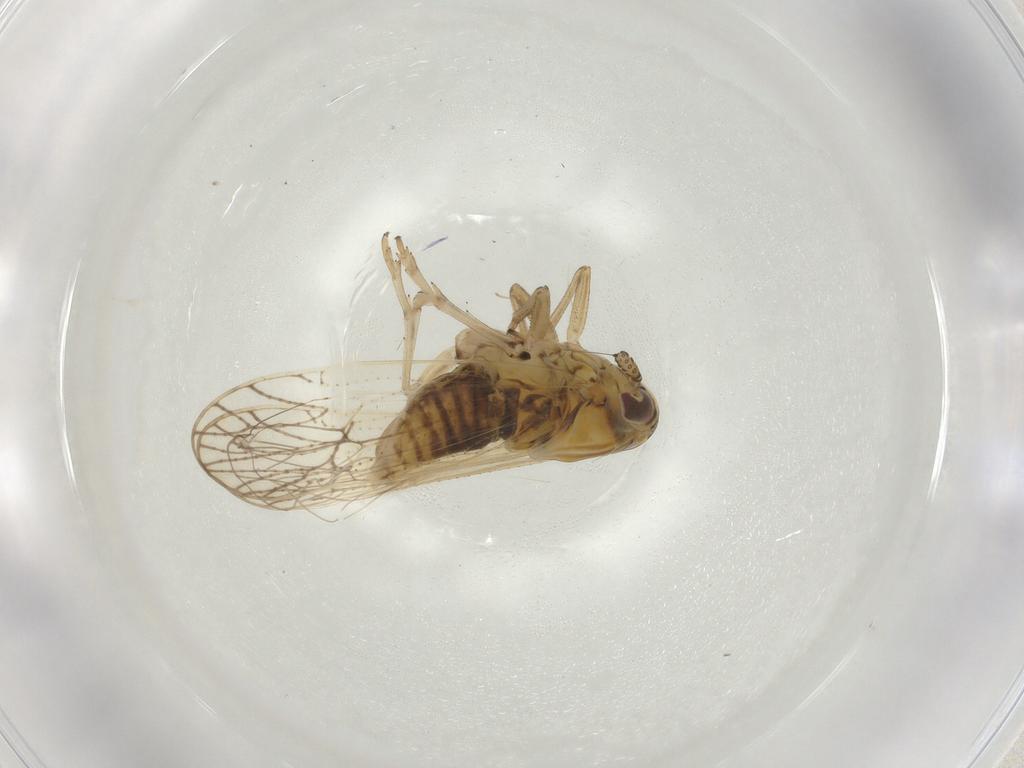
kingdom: Animalia
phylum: Arthropoda
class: Insecta
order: Hemiptera
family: Delphacidae
